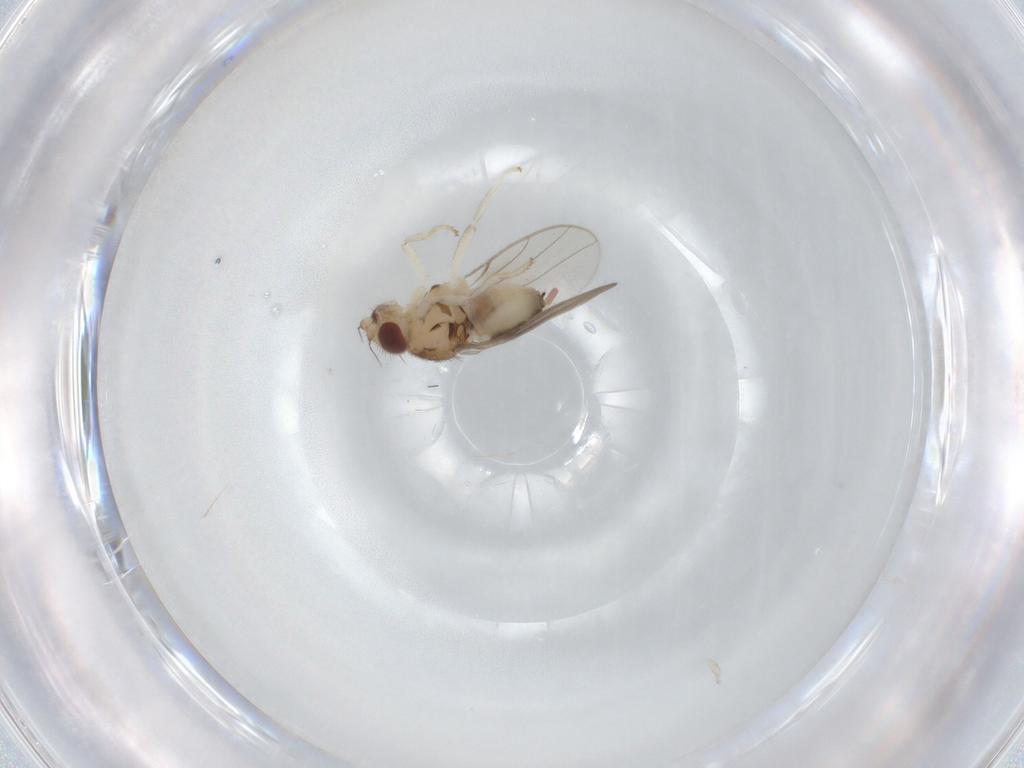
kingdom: Animalia
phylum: Arthropoda
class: Insecta
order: Diptera
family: Chloropidae
